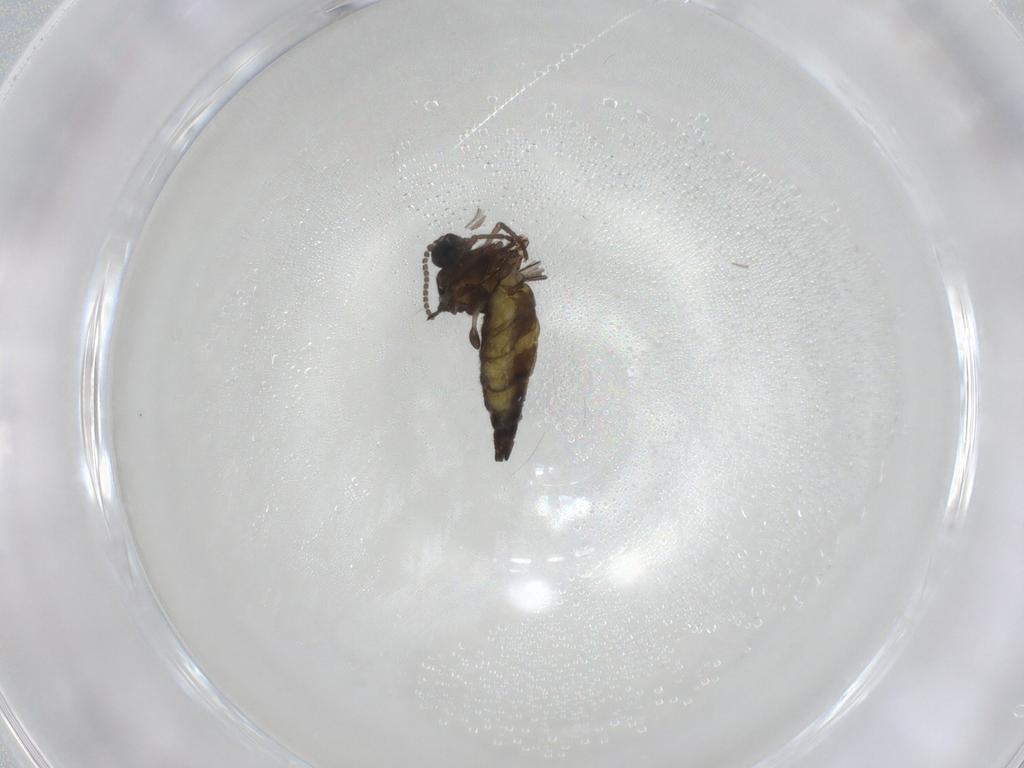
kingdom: Animalia
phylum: Arthropoda
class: Insecta
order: Diptera
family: Sciaridae
